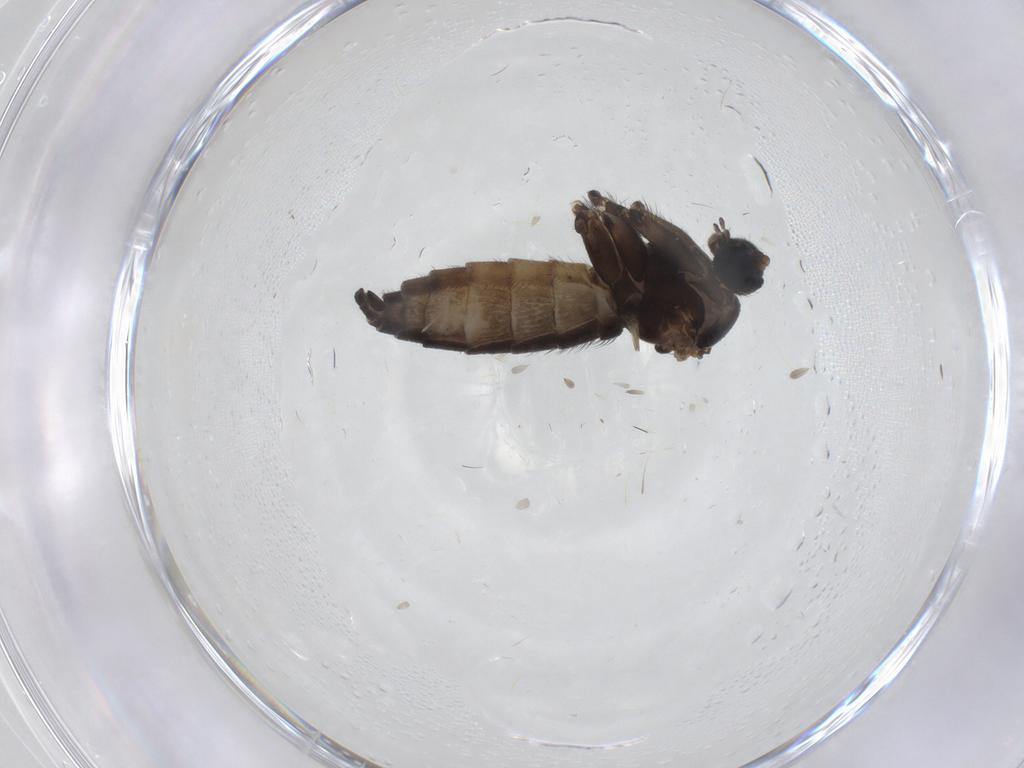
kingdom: Animalia
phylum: Arthropoda
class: Insecta
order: Diptera
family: Sciaridae
